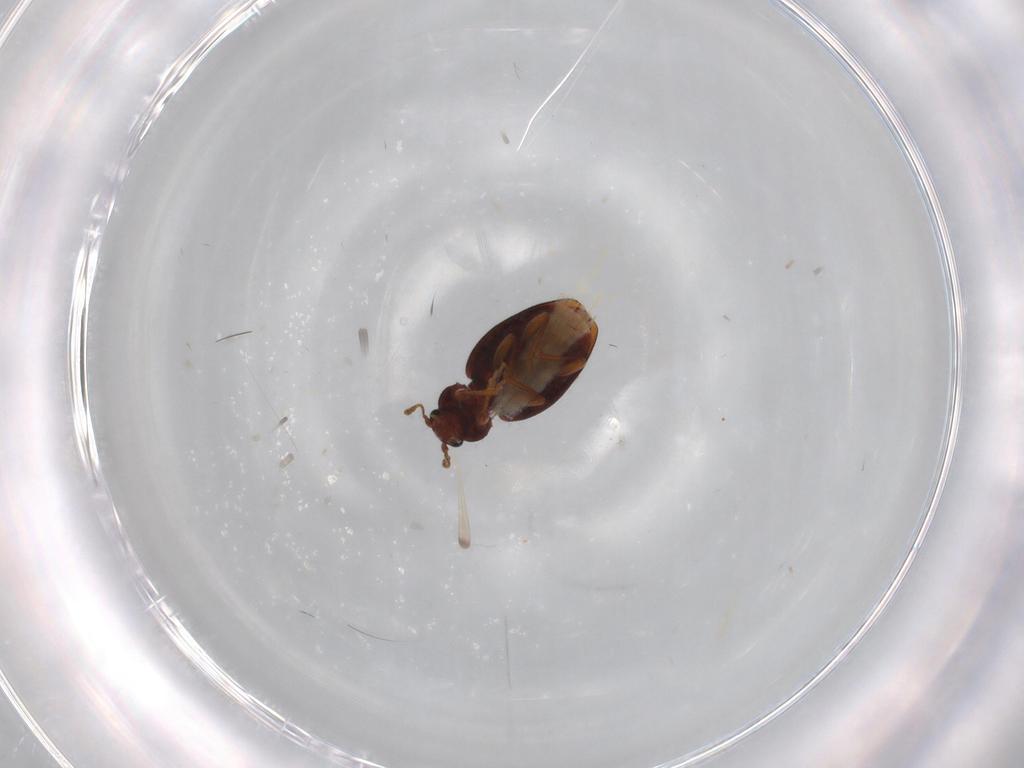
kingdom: Animalia
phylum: Arthropoda
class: Insecta
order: Coleoptera
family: Latridiidae
